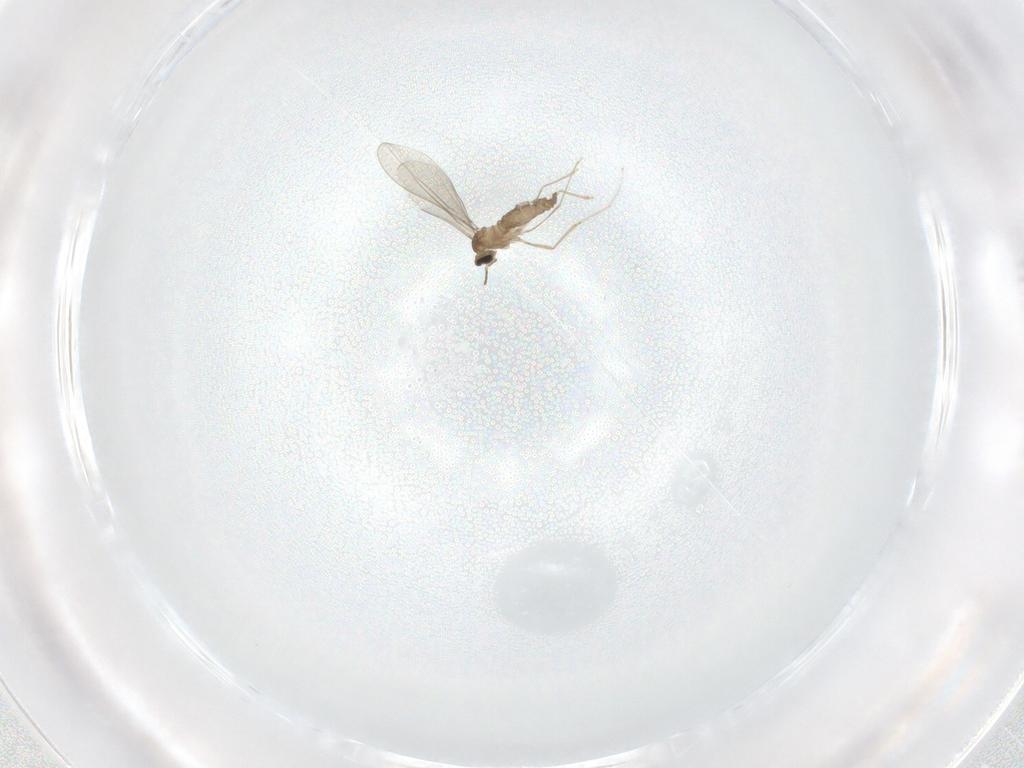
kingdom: Animalia
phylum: Arthropoda
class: Insecta
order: Diptera
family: Cecidomyiidae
